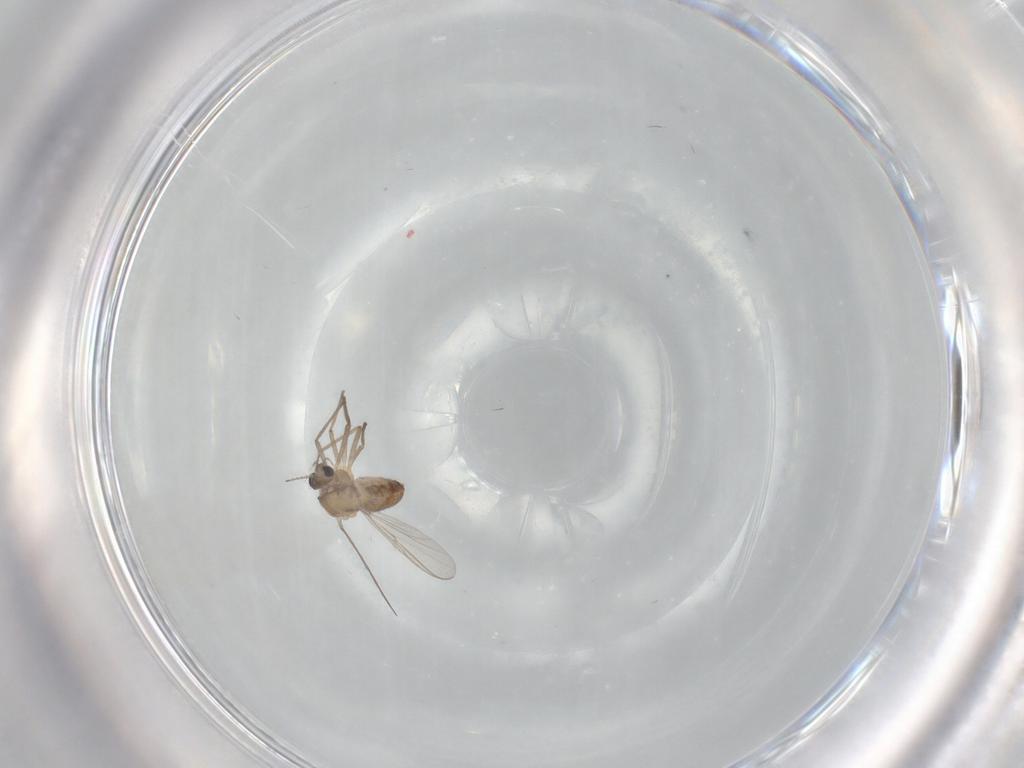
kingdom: Animalia
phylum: Arthropoda
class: Insecta
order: Diptera
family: Chironomidae
